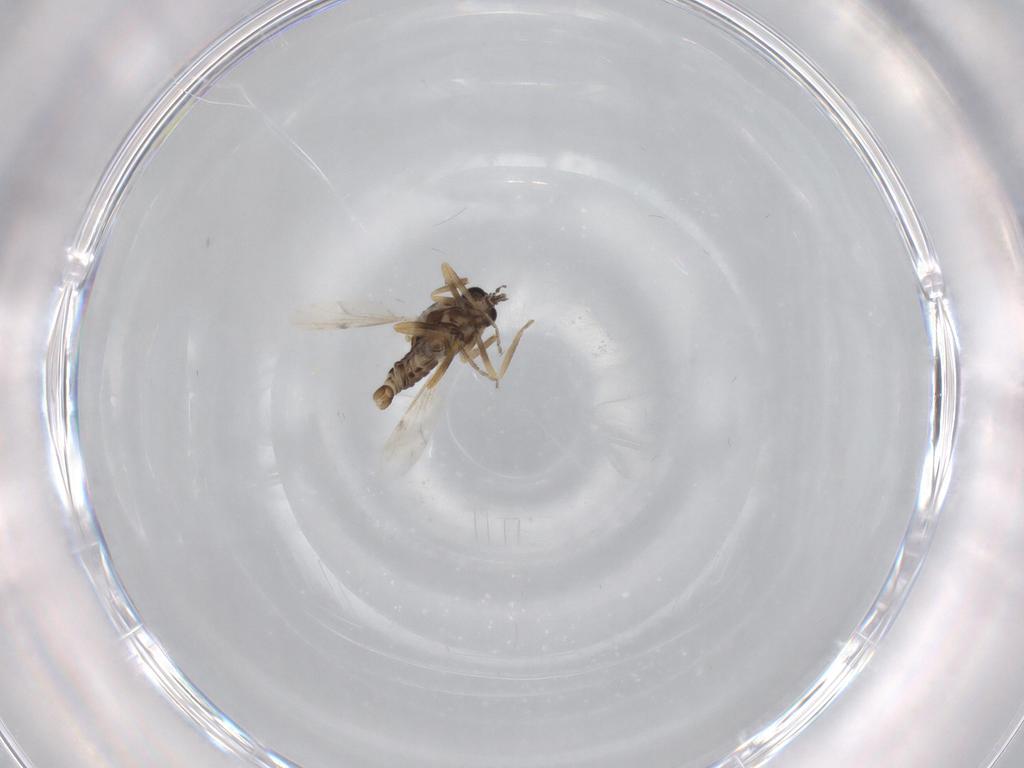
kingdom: Animalia
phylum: Arthropoda
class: Insecta
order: Diptera
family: Ceratopogonidae
